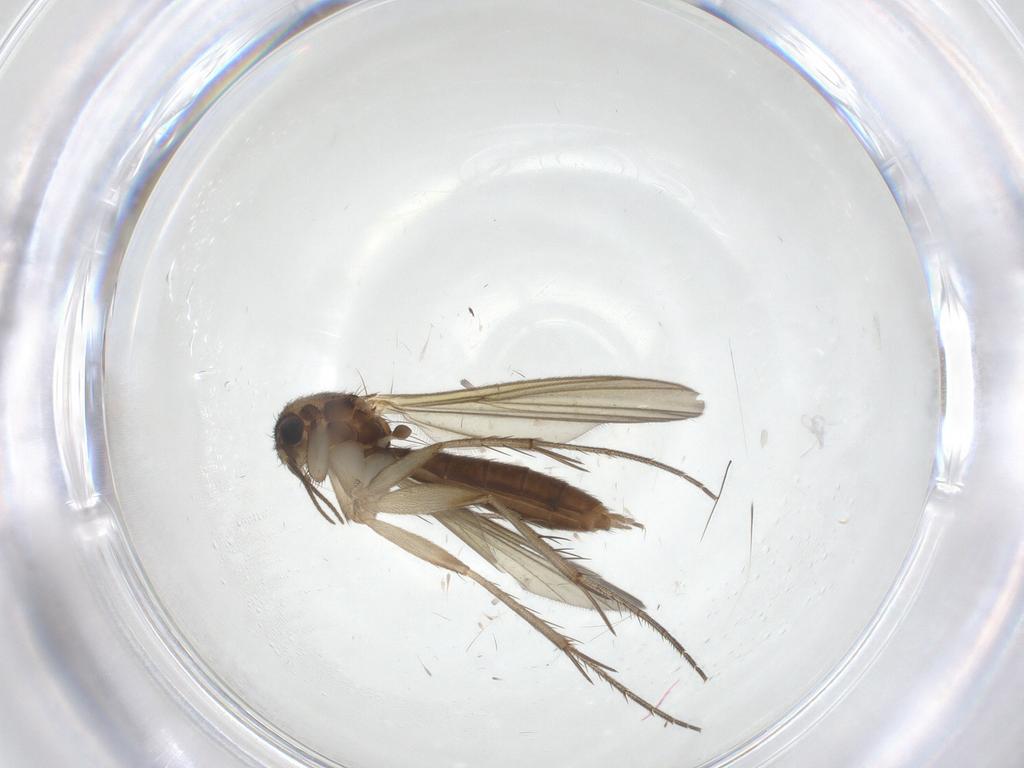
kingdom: Animalia
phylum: Arthropoda
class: Insecta
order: Diptera
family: Mycetophilidae
